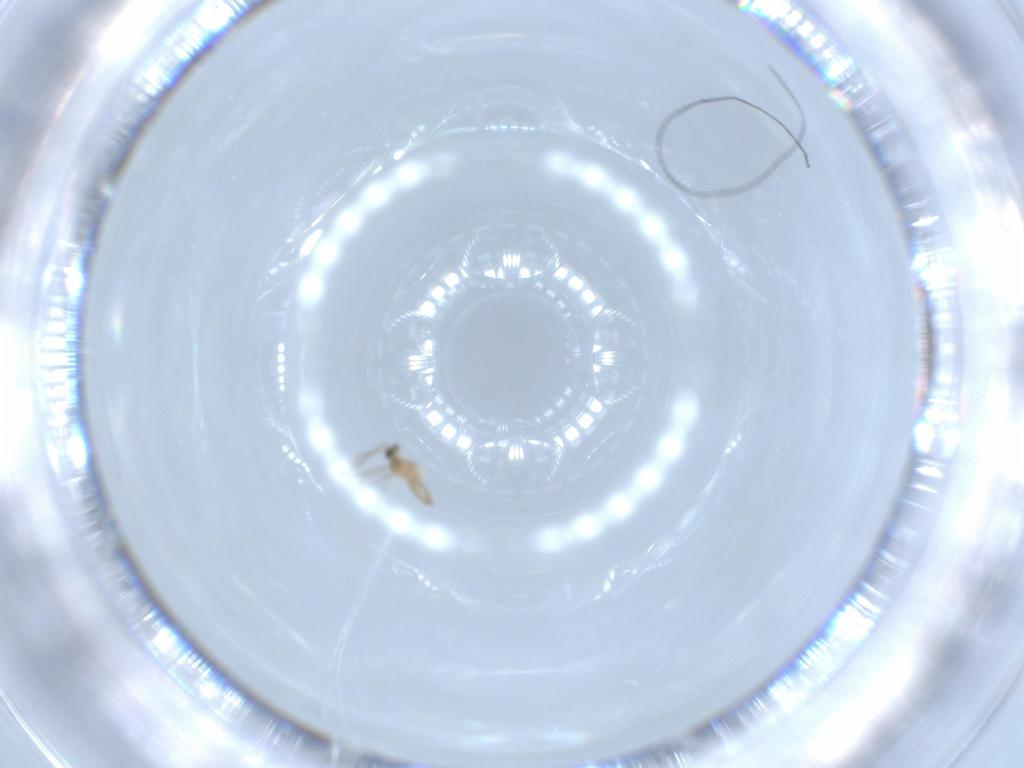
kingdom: Animalia
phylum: Arthropoda
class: Insecta
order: Diptera
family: Cecidomyiidae
